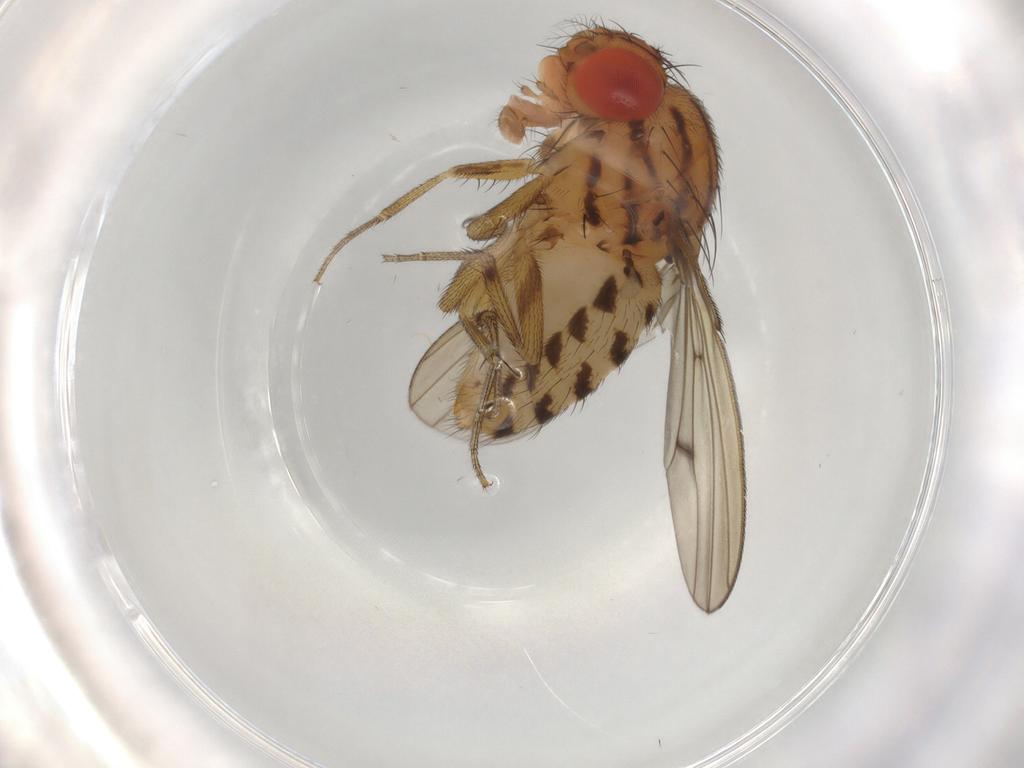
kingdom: Animalia
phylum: Arthropoda
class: Insecta
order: Diptera
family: Drosophilidae
